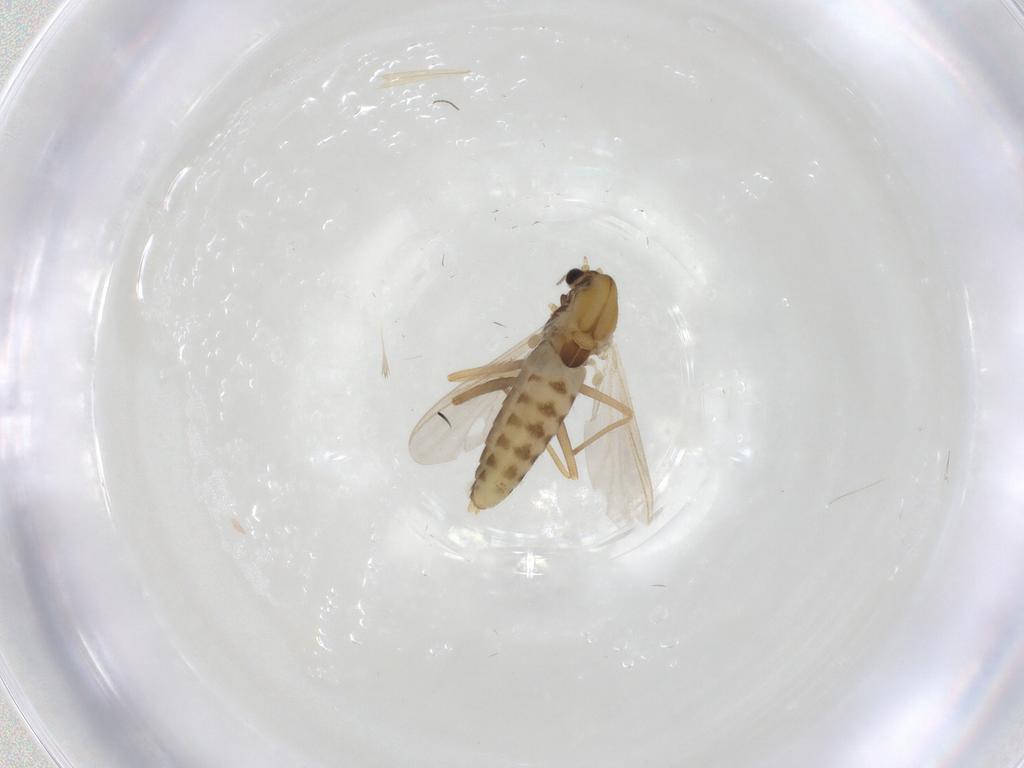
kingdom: Animalia
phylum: Arthropoda
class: Insecta
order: Diptera
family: Chironomidae
